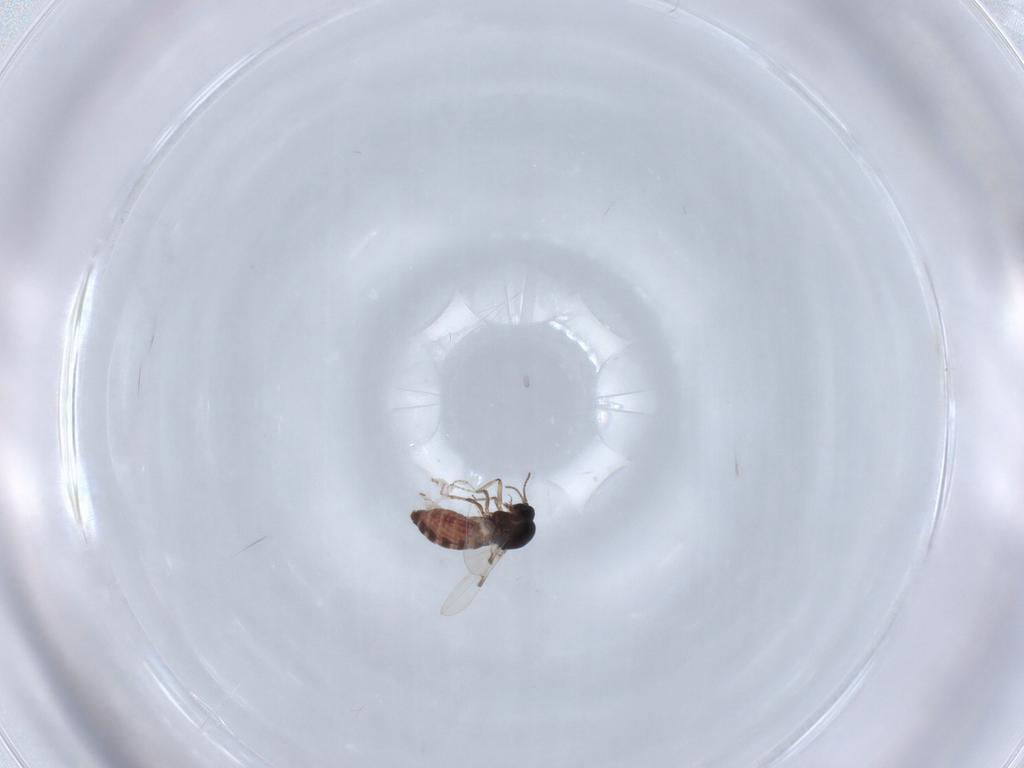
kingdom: Animalia
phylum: Arthropoda
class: Insecta
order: Diptera
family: Ceratopogonidae
